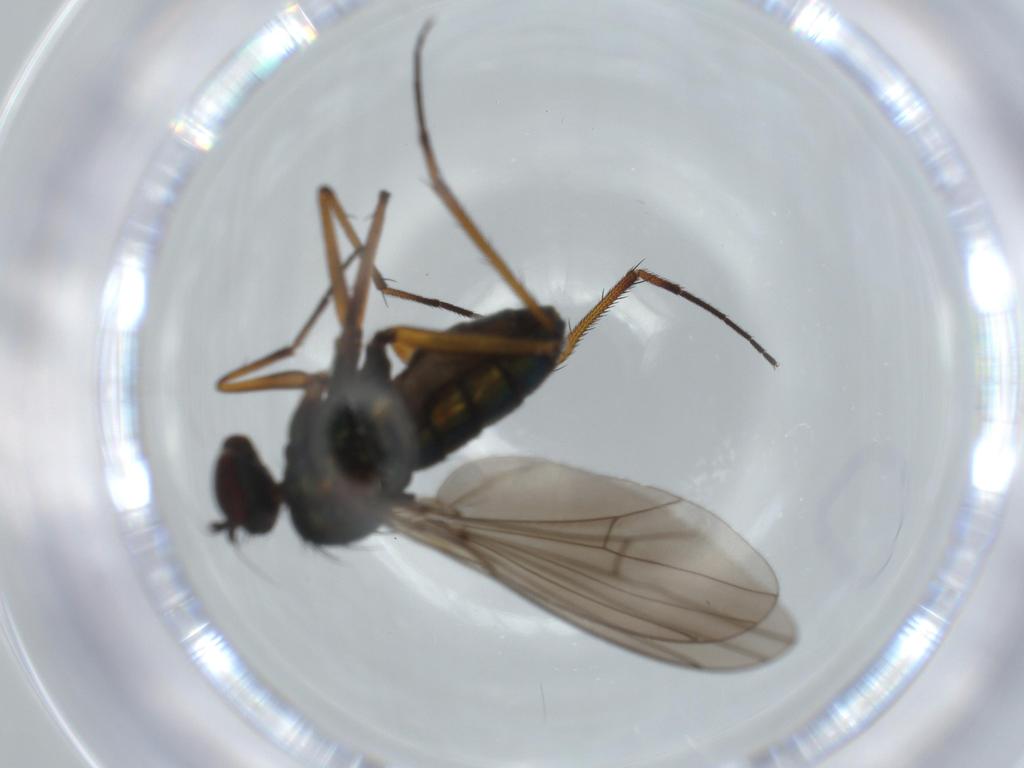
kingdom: Animalia
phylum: Arthropoda
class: Insecta
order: Diptera
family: Dolichopodidae
